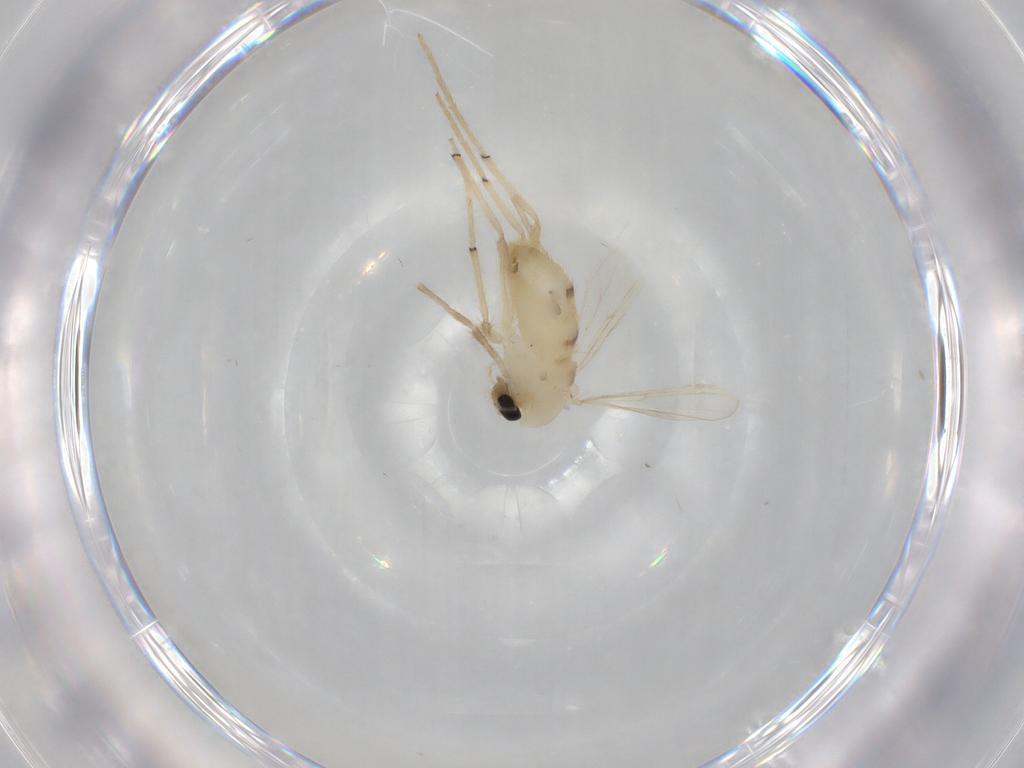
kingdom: Animalia
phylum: Arthropoda
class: Insecta
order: Diptera
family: Chironomidae
